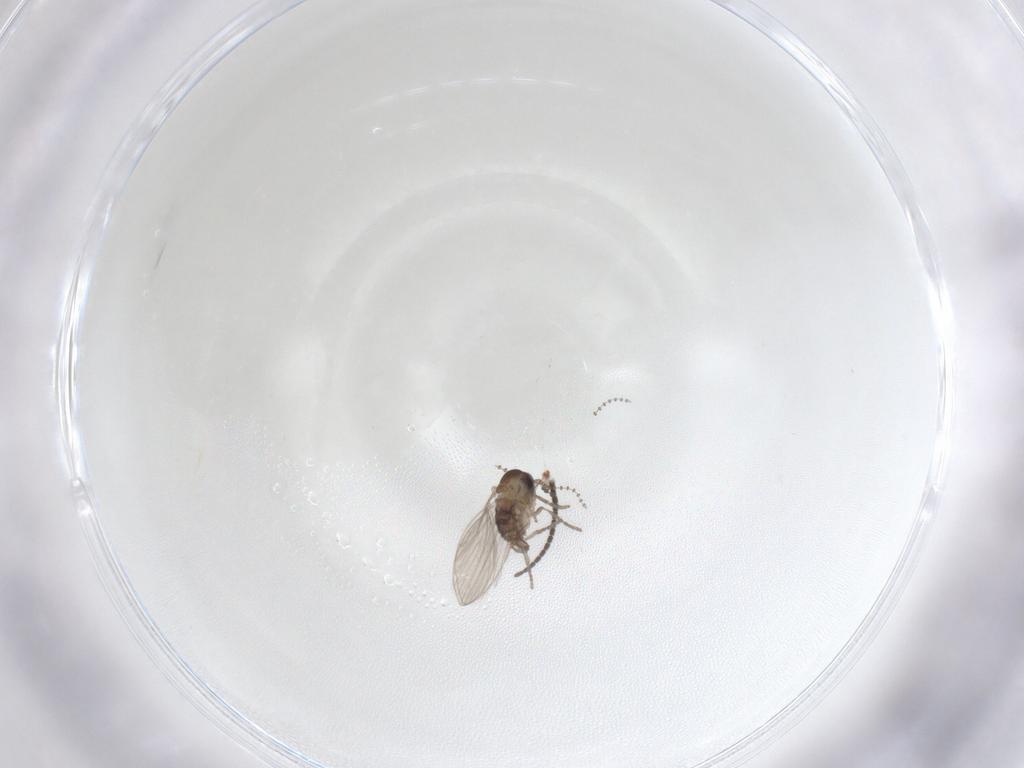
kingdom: Animalia
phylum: Arthropoda
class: Insecta
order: Diptera
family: Psychodidae
